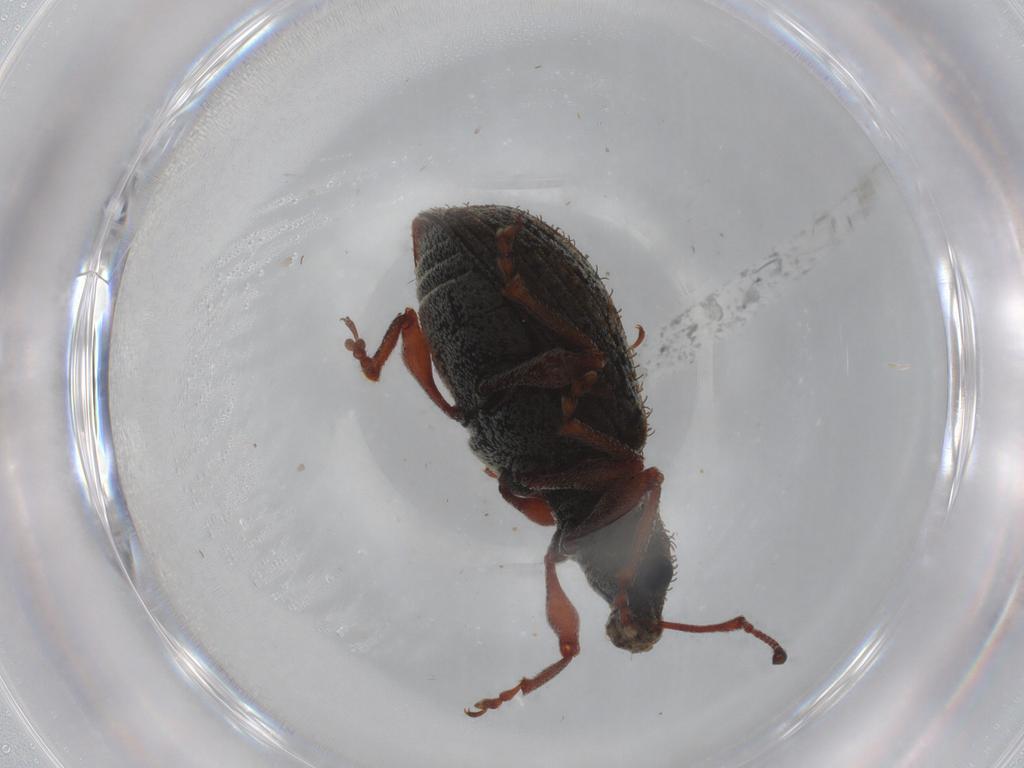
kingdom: Animalia
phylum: Arthropoda
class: Insecta
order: Coleoptera
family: Curculionidae
